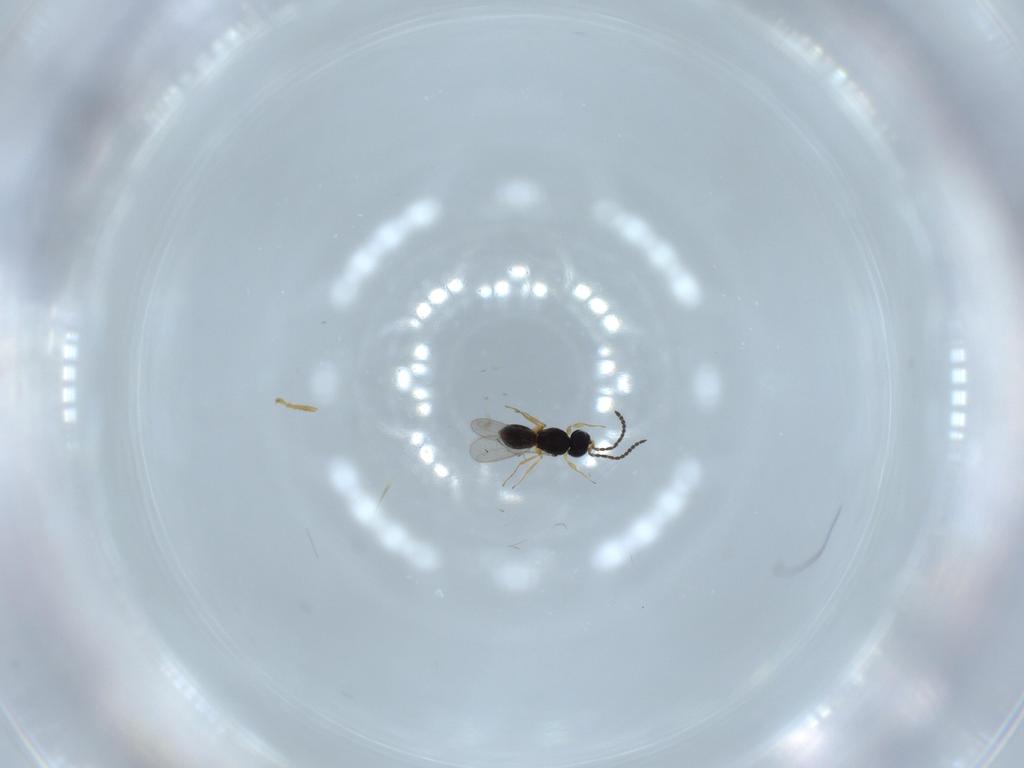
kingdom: Animalia
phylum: Arthropoda
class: Insecta
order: Hymenoptera
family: Scelionidae
